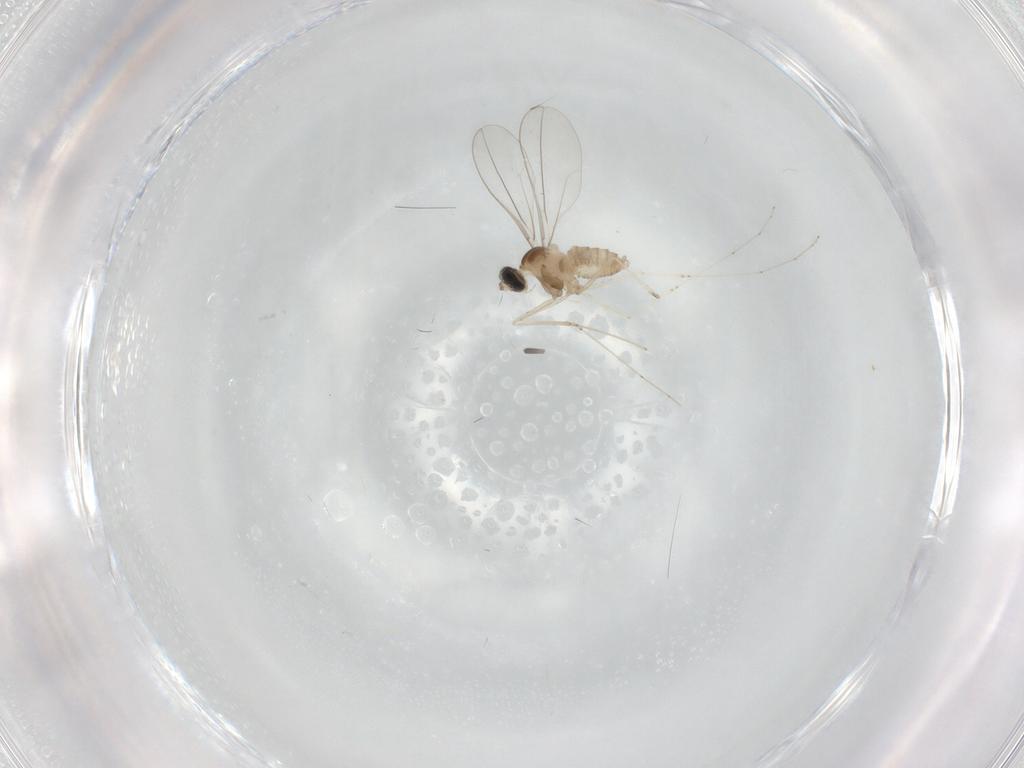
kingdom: Animalia
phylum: Arthropoda
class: Insecta
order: Diptera
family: Cecidomyiidae
